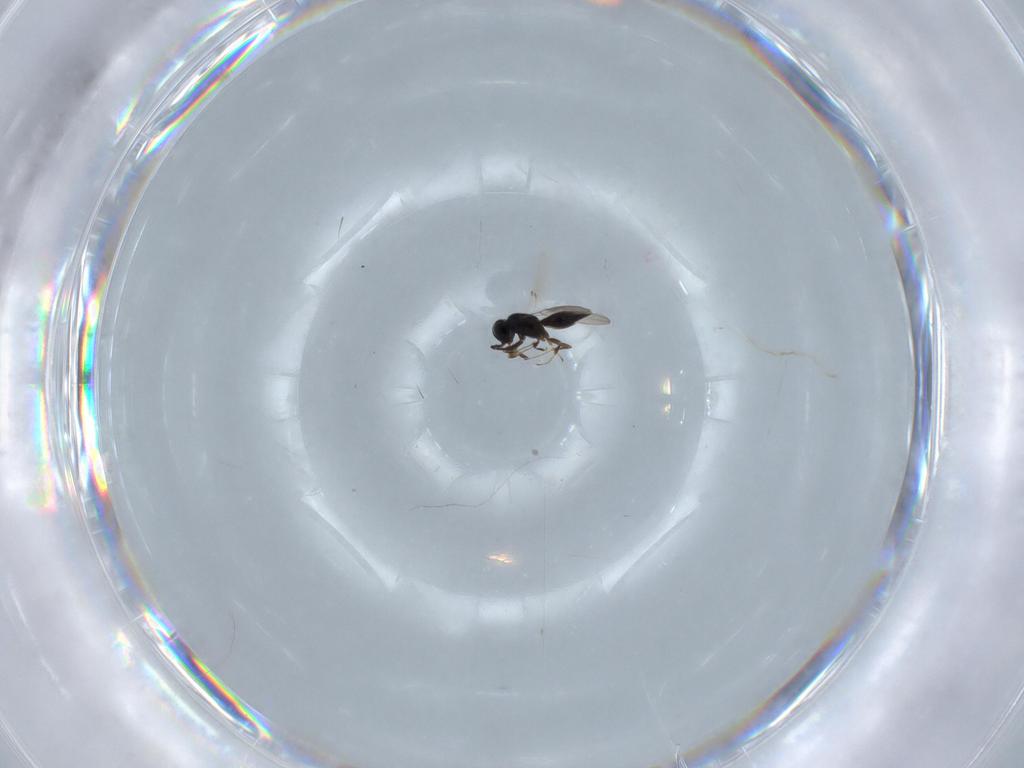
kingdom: Animalia
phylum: Arthropoda
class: Insecta
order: Hymenoptera
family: Scelionidae
